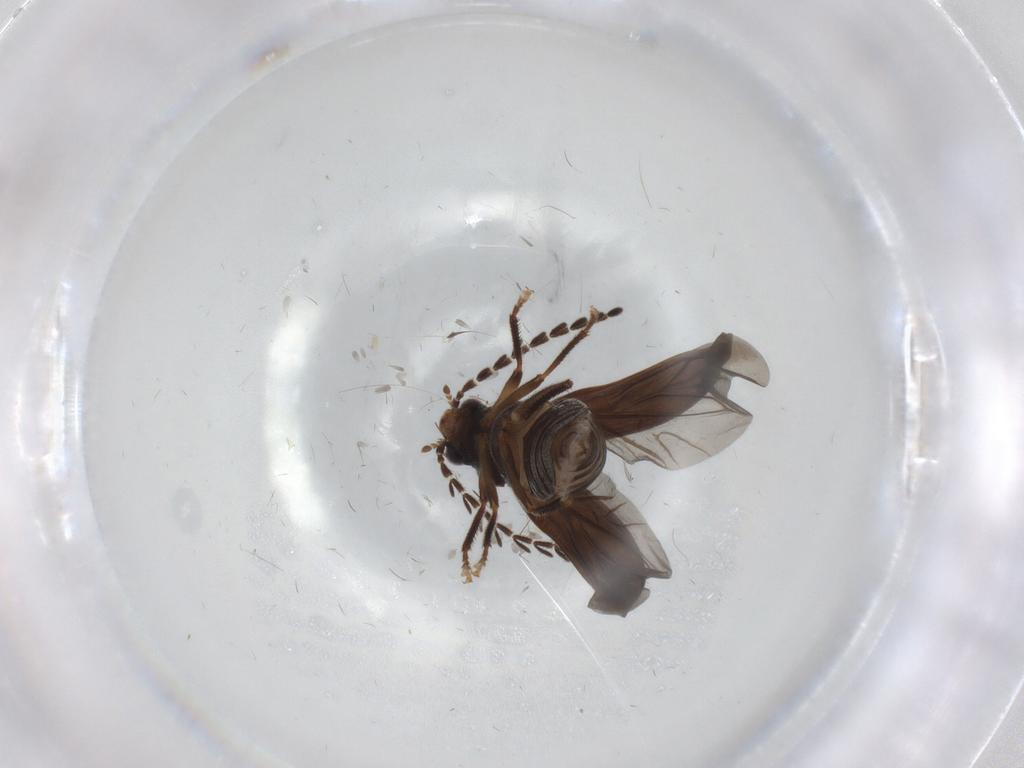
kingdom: Animalia
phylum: Arthropoda
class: Insecta
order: Coleoptera
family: Ptilodactylidae
